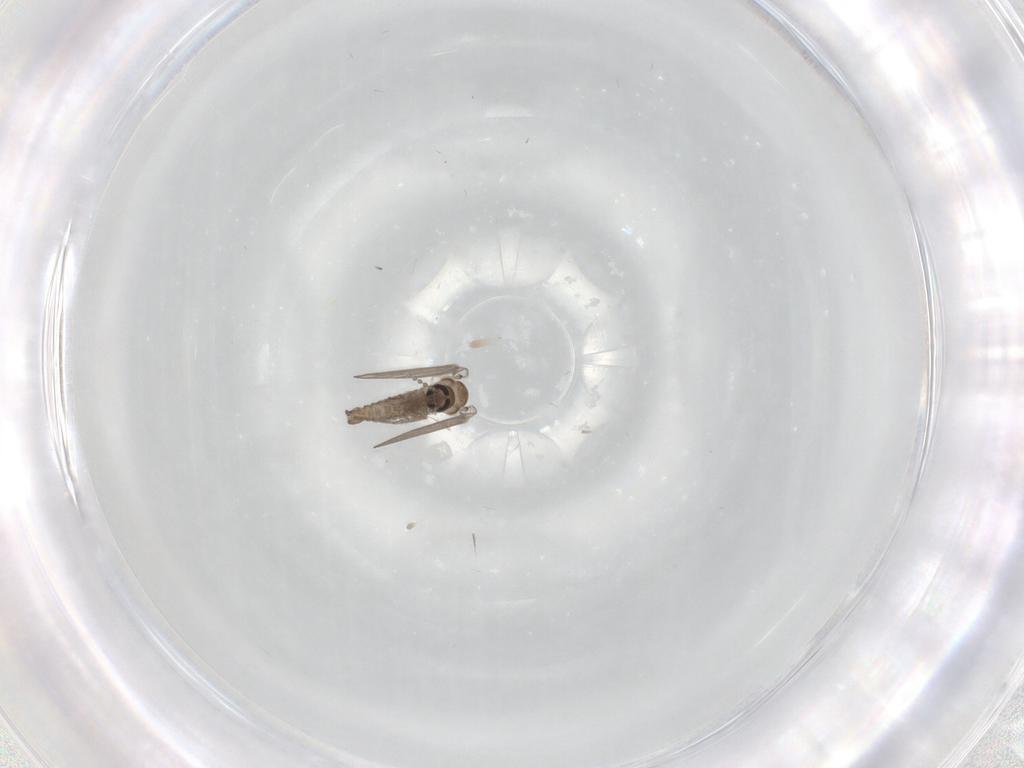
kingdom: Animalia
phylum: Arthropoda
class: Insecta
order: Diptera
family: Psychodidae
